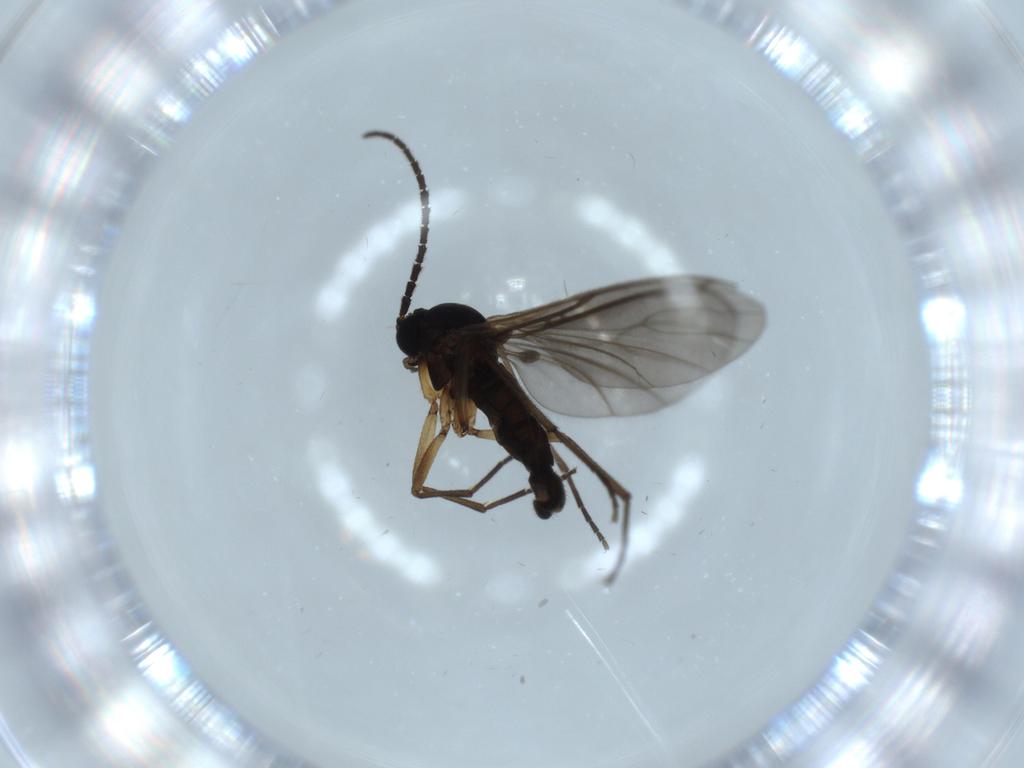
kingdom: Animalia
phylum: Arthropoda
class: Insecta
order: Diptera
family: Sciaridae
